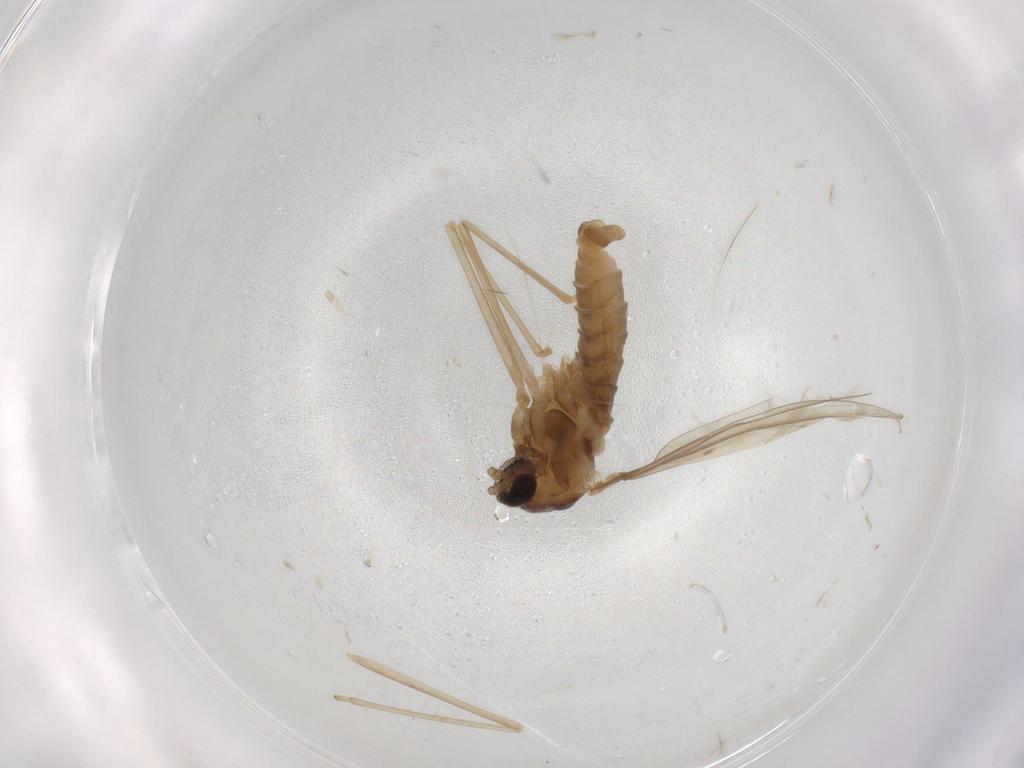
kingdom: Animalia
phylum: Arthropoda
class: Insecta
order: Diptera
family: Cecidomyiidae
